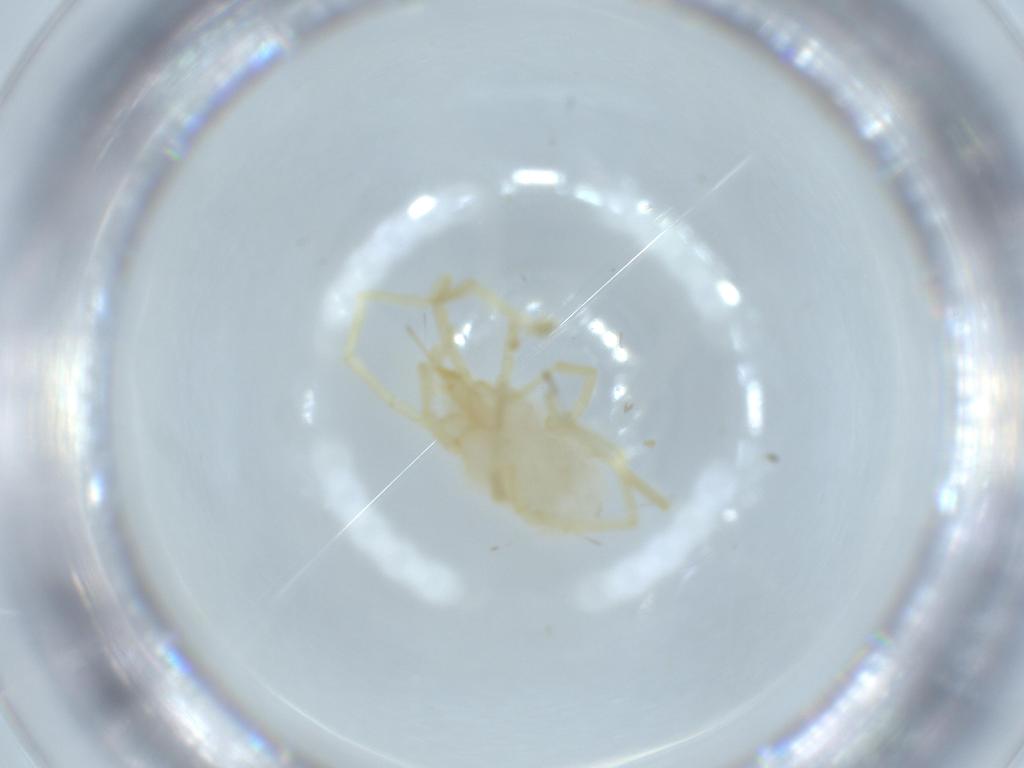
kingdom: Animalia
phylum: Arthropoda
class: Arachnida
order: Trombidiformes
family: Erythraeidae
